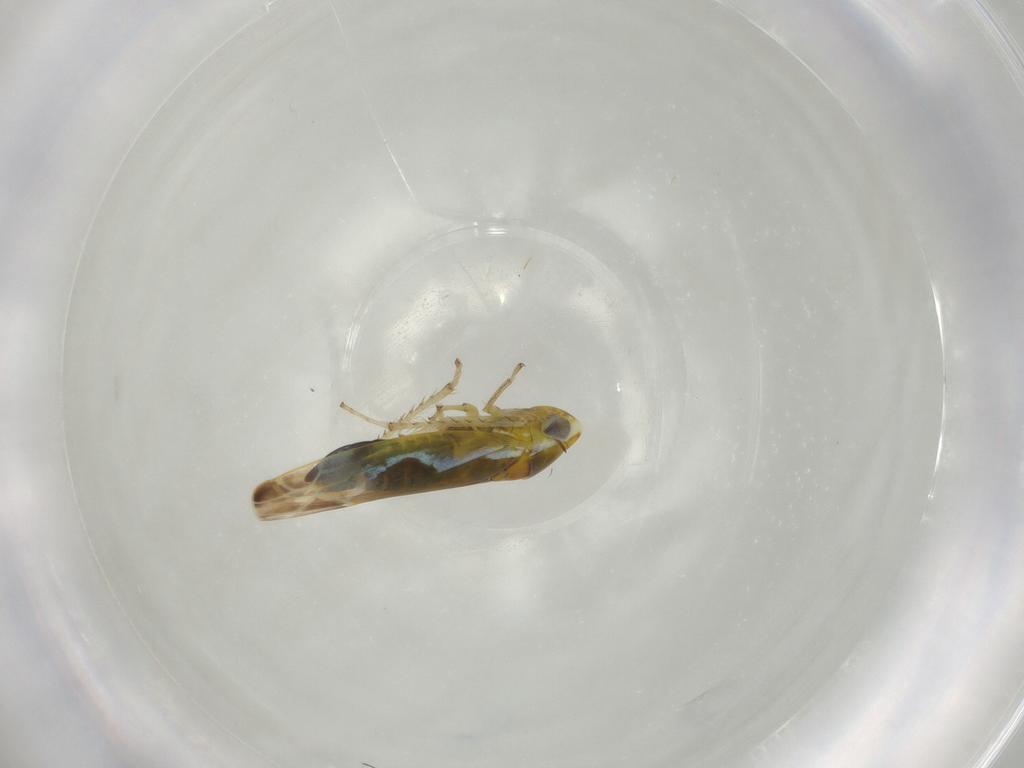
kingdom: Animalia
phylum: Arthropoda
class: Insecta
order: Hemiptera
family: Cicadellidae
